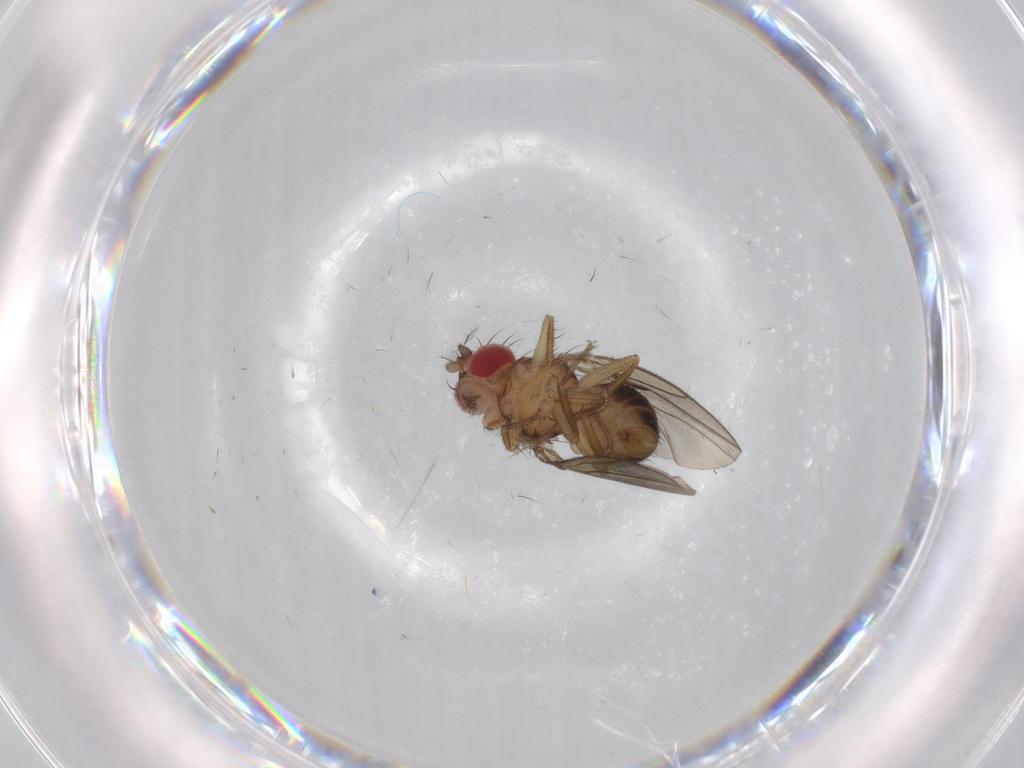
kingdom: Animalia
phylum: Arthropoda
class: Insecta
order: Diptera
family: Drosophilidae
